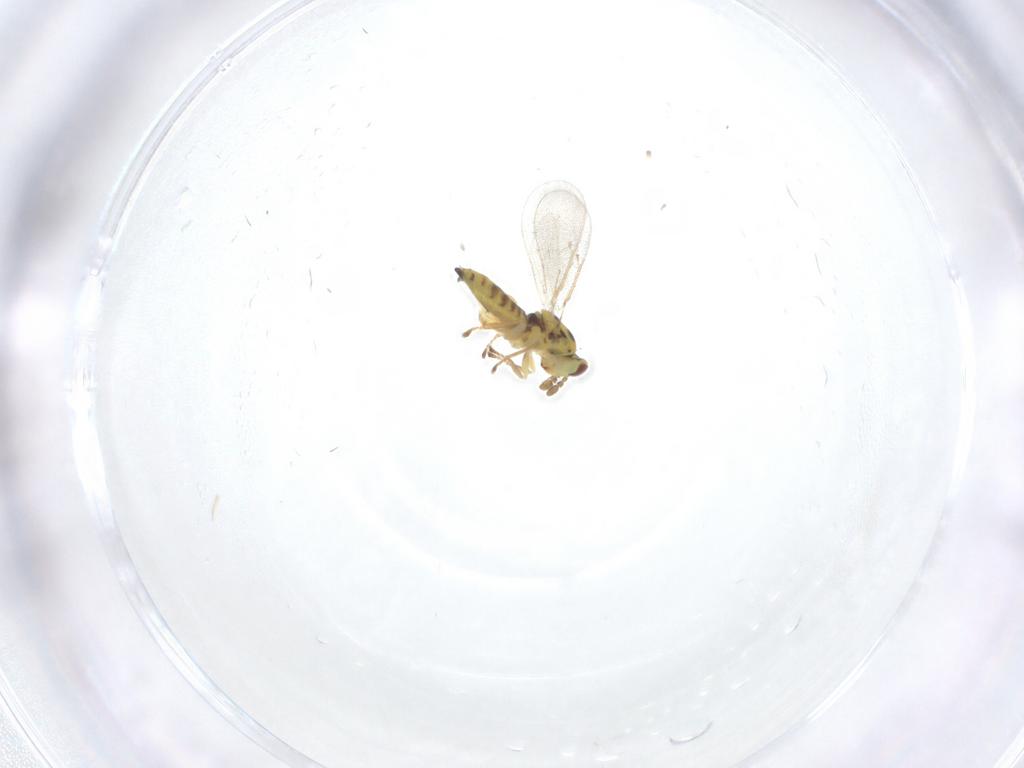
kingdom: Animalia
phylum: Arthropoda
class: Insecta
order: Hymenoptera
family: Eulophidae
